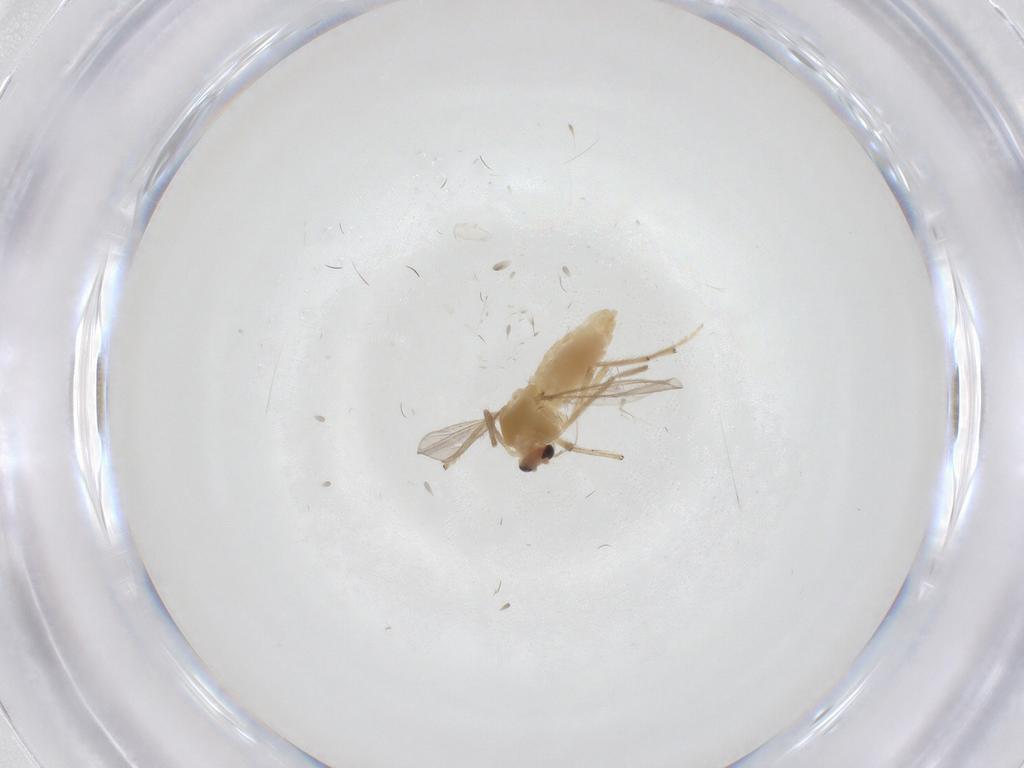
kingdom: Animalia
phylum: Arthropoda
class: Insecta
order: Diptera
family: Chironomidae
